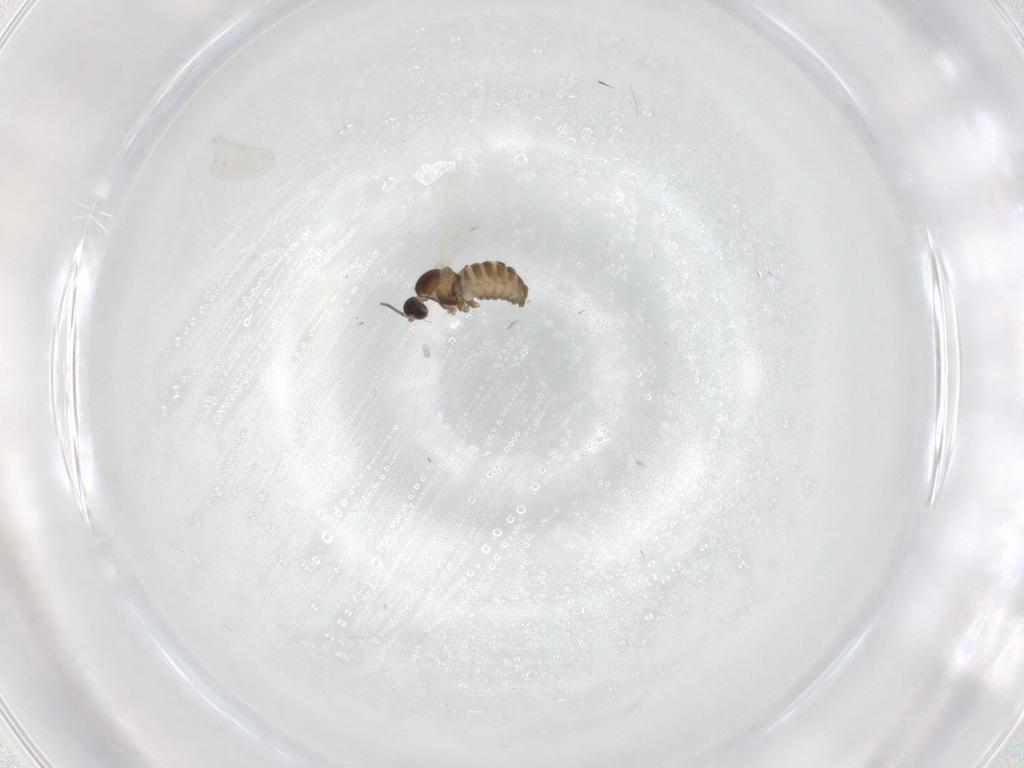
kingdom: Animalia
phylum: Arthropoda
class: Insecta
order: Diptera
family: Cecidomyiidae
